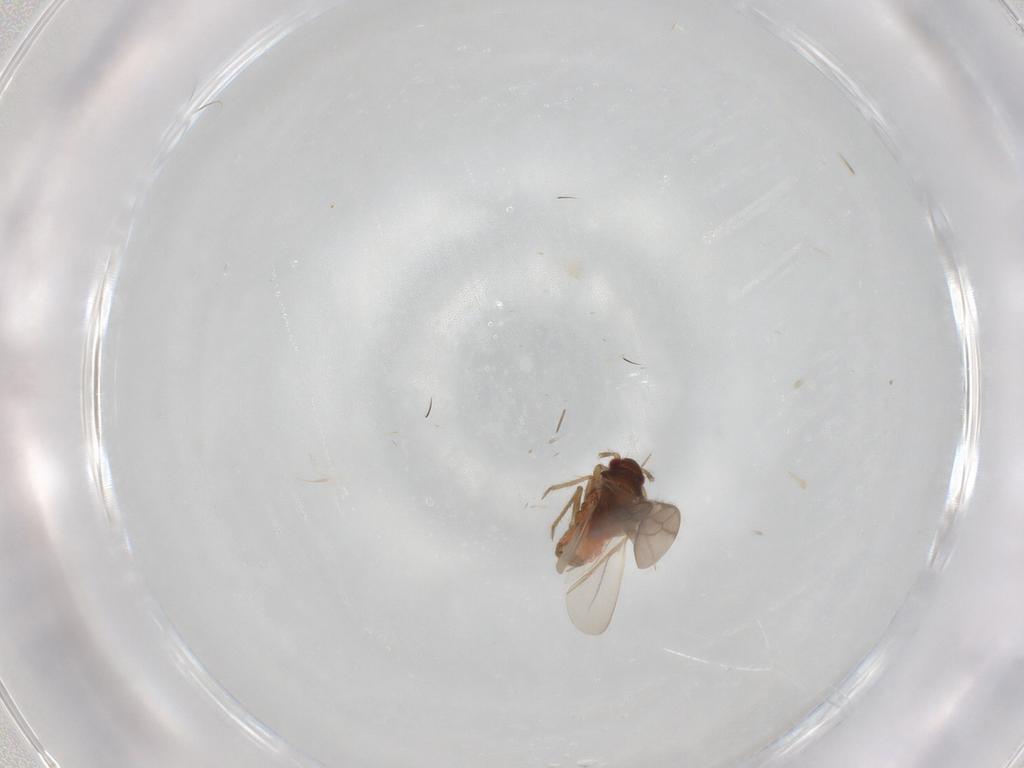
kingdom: Animalia
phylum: Arthropoda
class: Insecta
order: Hemiptera
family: Ceratocombidae
